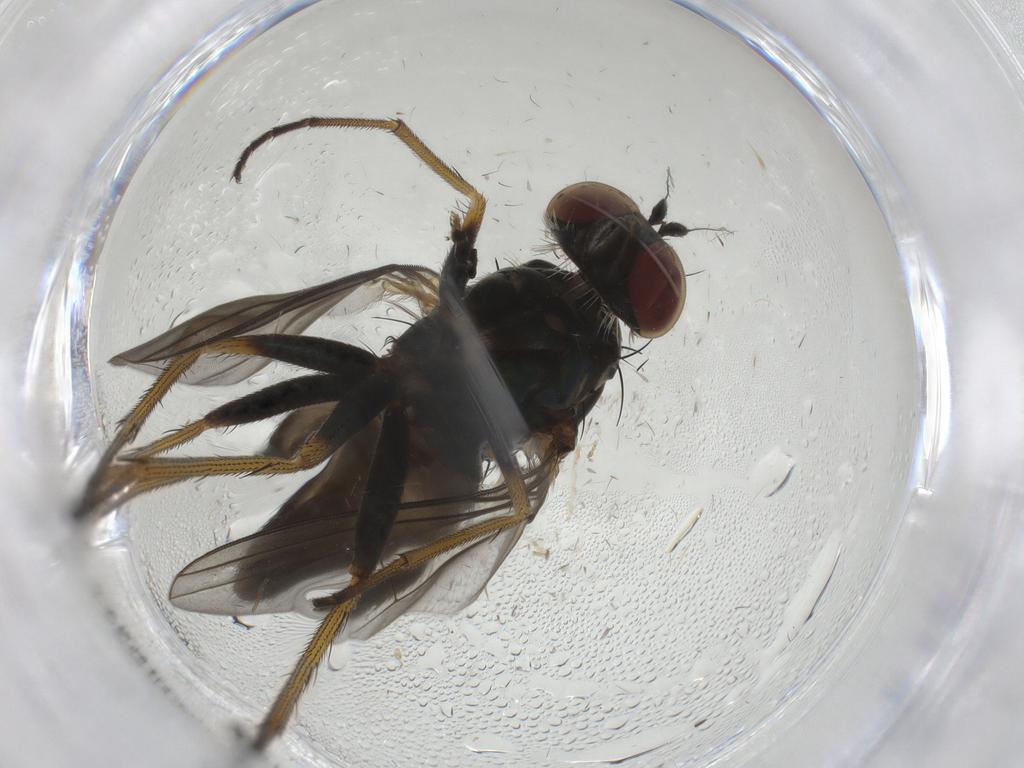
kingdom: Animalia
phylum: Arthropoda
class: Insecta
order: Diptera
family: Dolichopodidae
